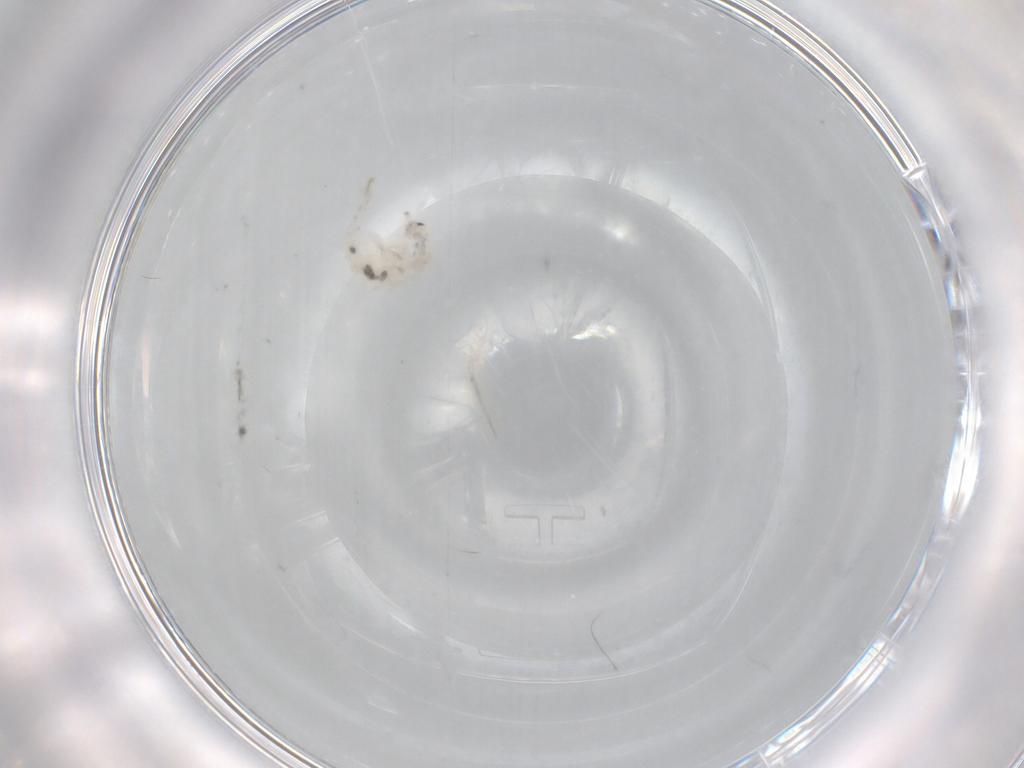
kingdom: Animalia
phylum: Arthropoda
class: Collembola
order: Entomobryomorpha
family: Entomobryidae
